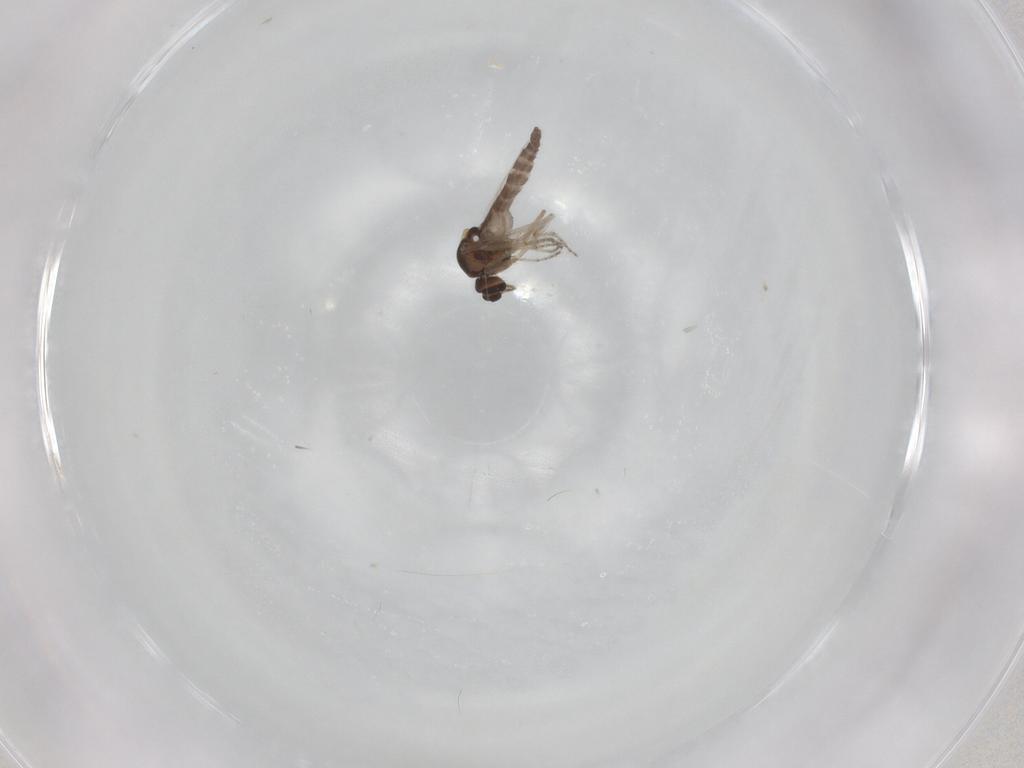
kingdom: Animalia
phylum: Arthropoda
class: Insecta
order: Diptera
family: Ceratopogonidae
